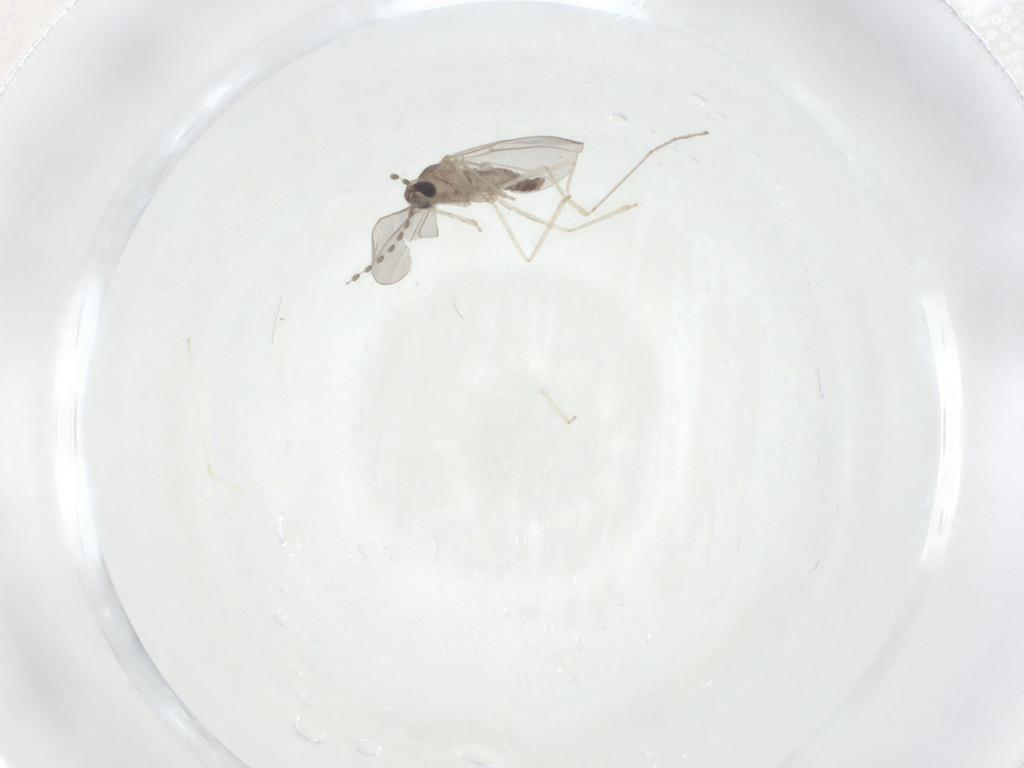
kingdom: Animalia
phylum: Arthropoda
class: Insecta
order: Diptera
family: Cecidomyiidae
